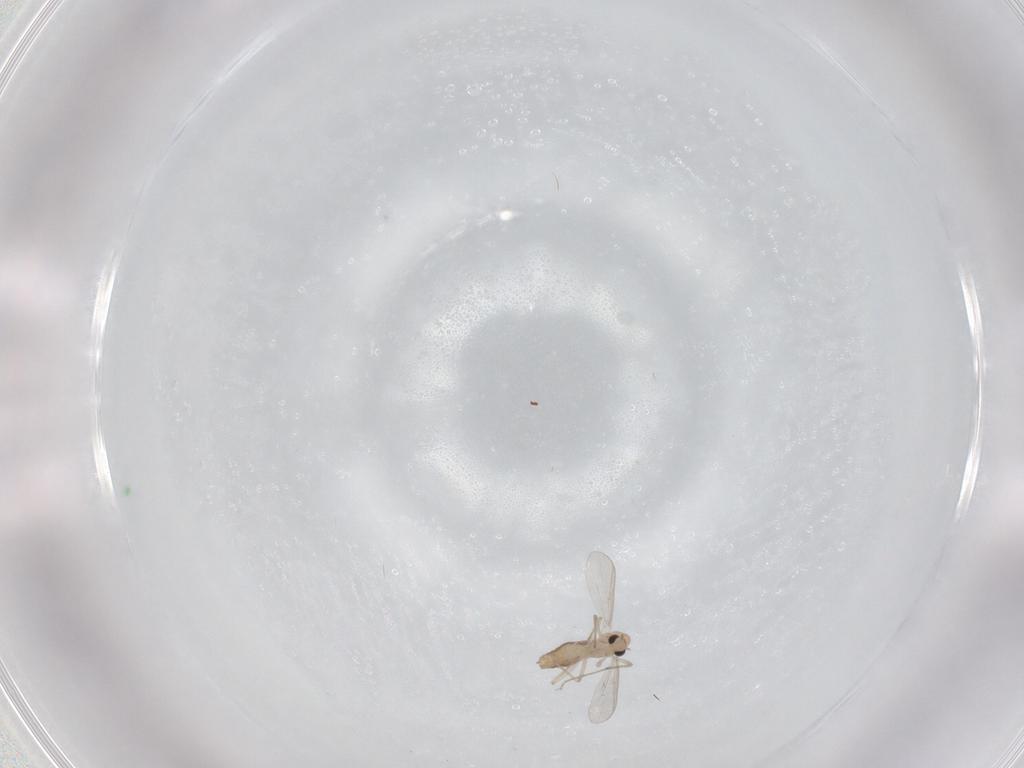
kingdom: Animalia
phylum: Arthropoda
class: Insecta
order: Diptera
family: Chironomidae
